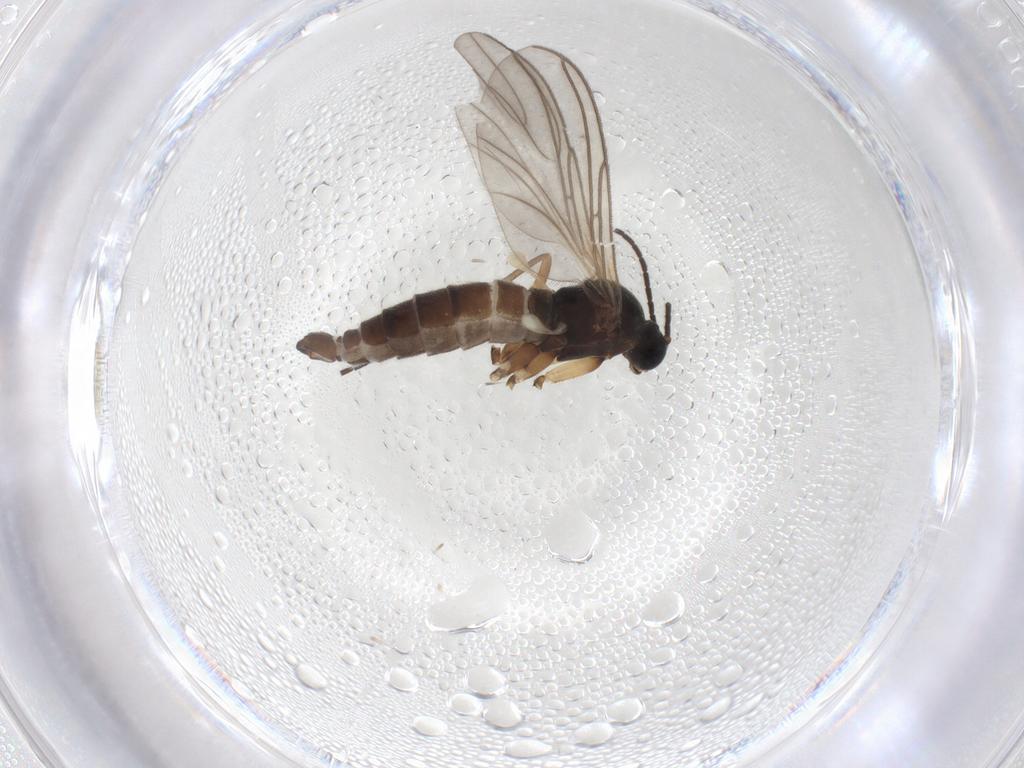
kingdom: Animalia
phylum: Arthropoda
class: Insecta
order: Diptera
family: Sciaridae
